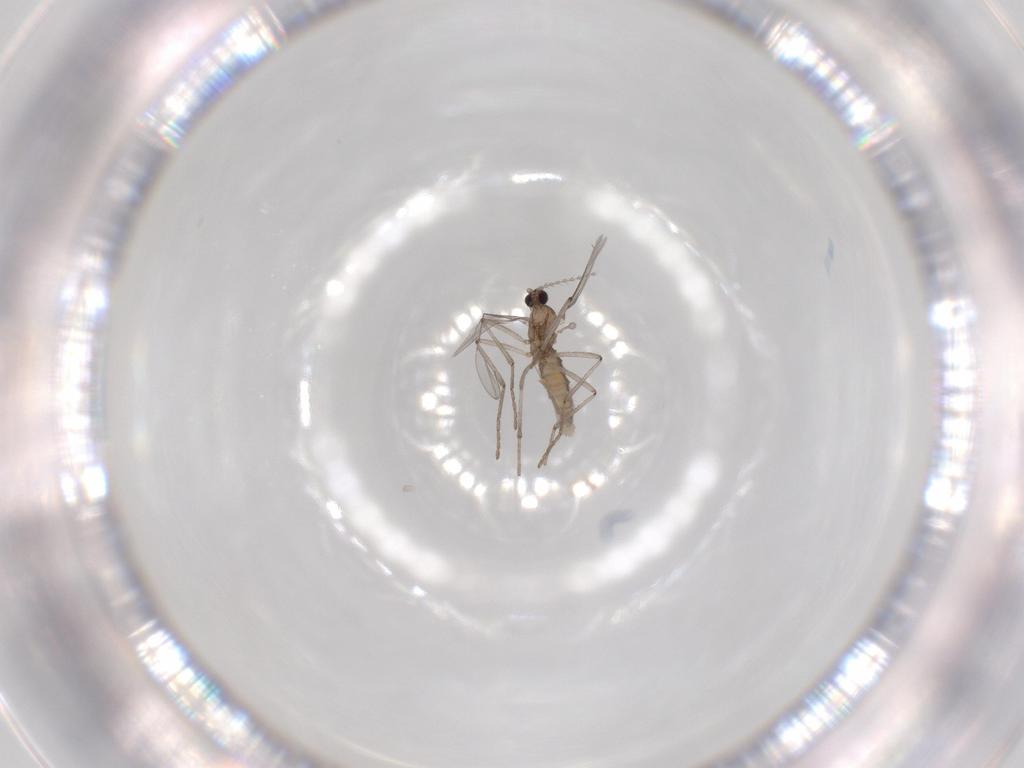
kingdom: Animalia
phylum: Arthropoda
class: Insecta
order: Diptera
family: Cecidomyiidae
